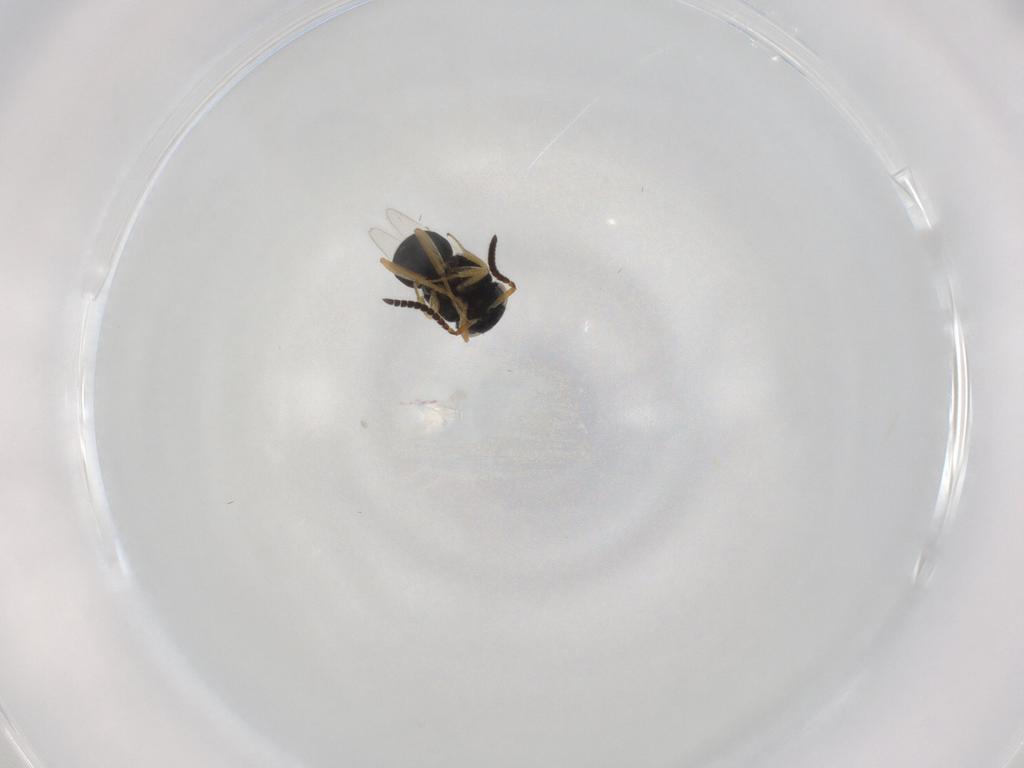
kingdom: Animalia
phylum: Arthropoda
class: Insecta
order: Hymenoptera
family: Scelionidae
